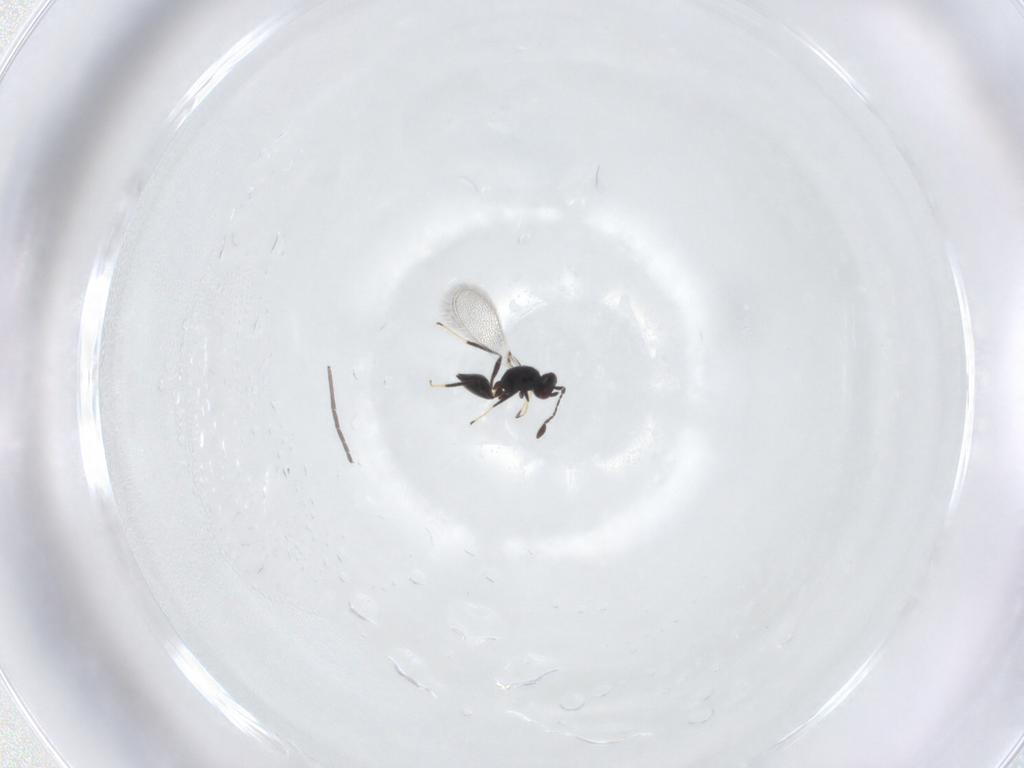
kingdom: Animalia
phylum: Arthropoda
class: Insecta
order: Hymenoptera
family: Mymaridae
